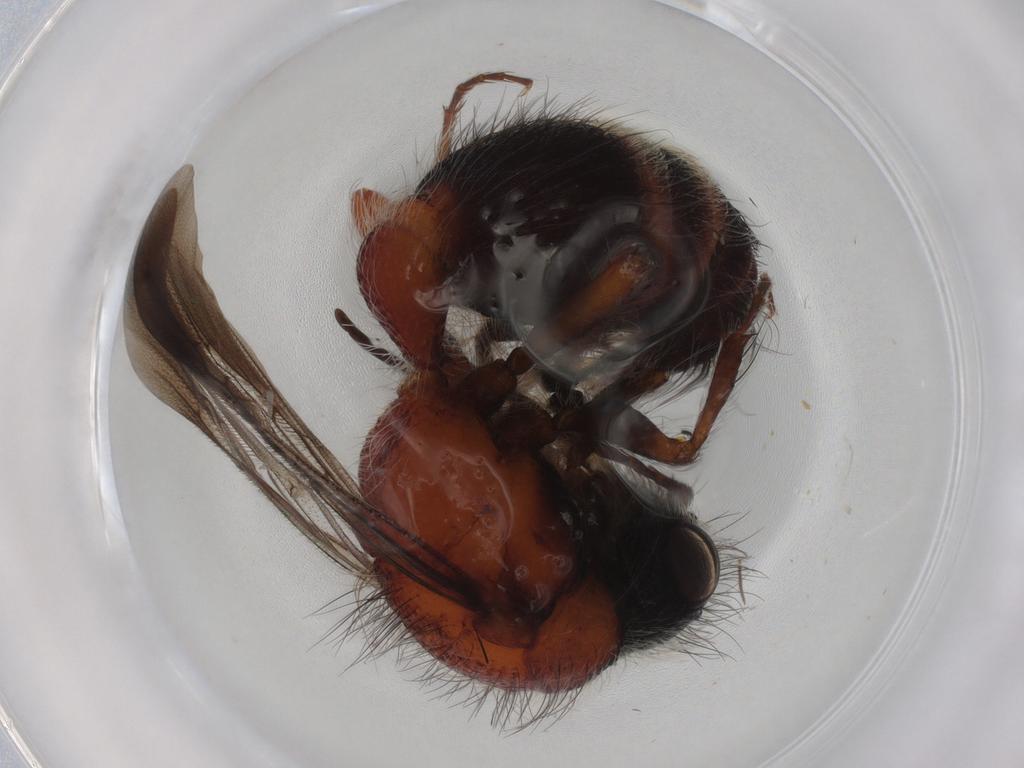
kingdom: Animalia
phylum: Arthropoda
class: Insecta
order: Hymenoptera
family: Scelionidae
